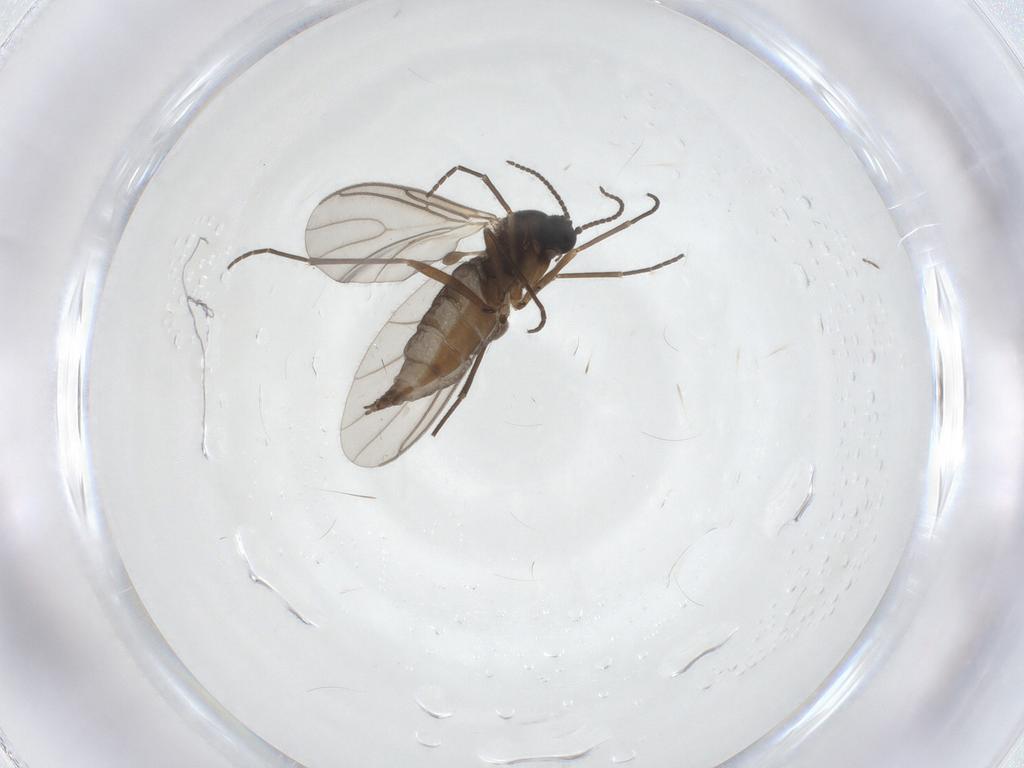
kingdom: Animalia
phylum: Arthropoda
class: Insecta
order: Diptera
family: Sciaridae
